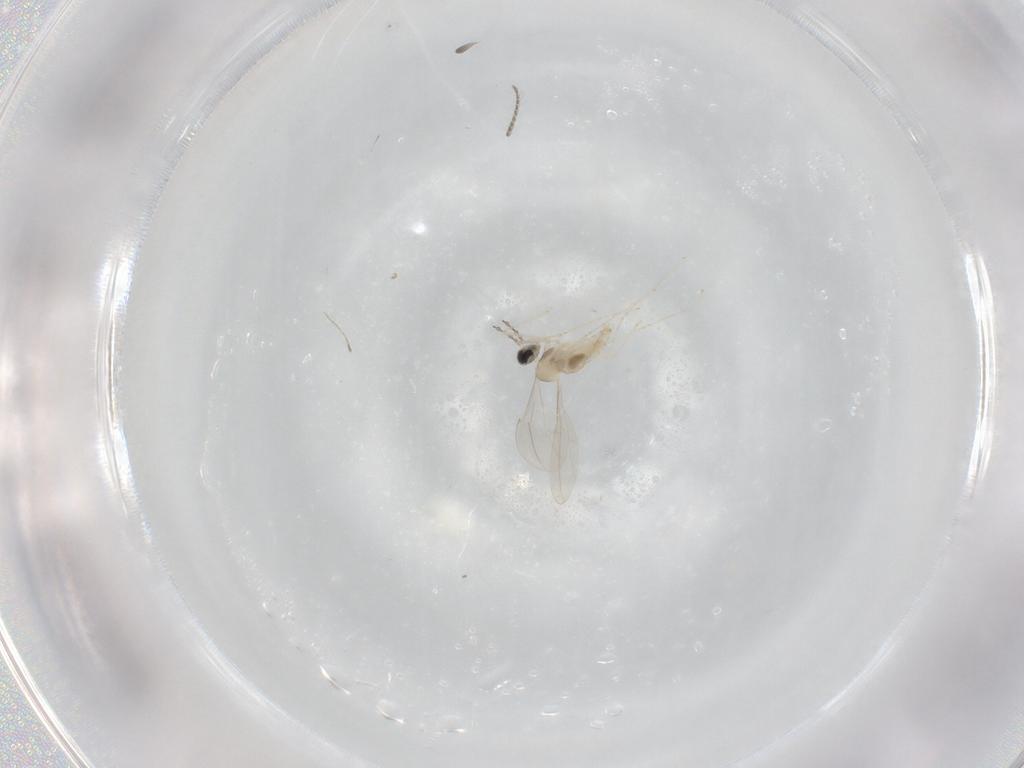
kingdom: Animalia
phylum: Arthropoda
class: Insecta
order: Diptera
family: Cecidomyiidae
